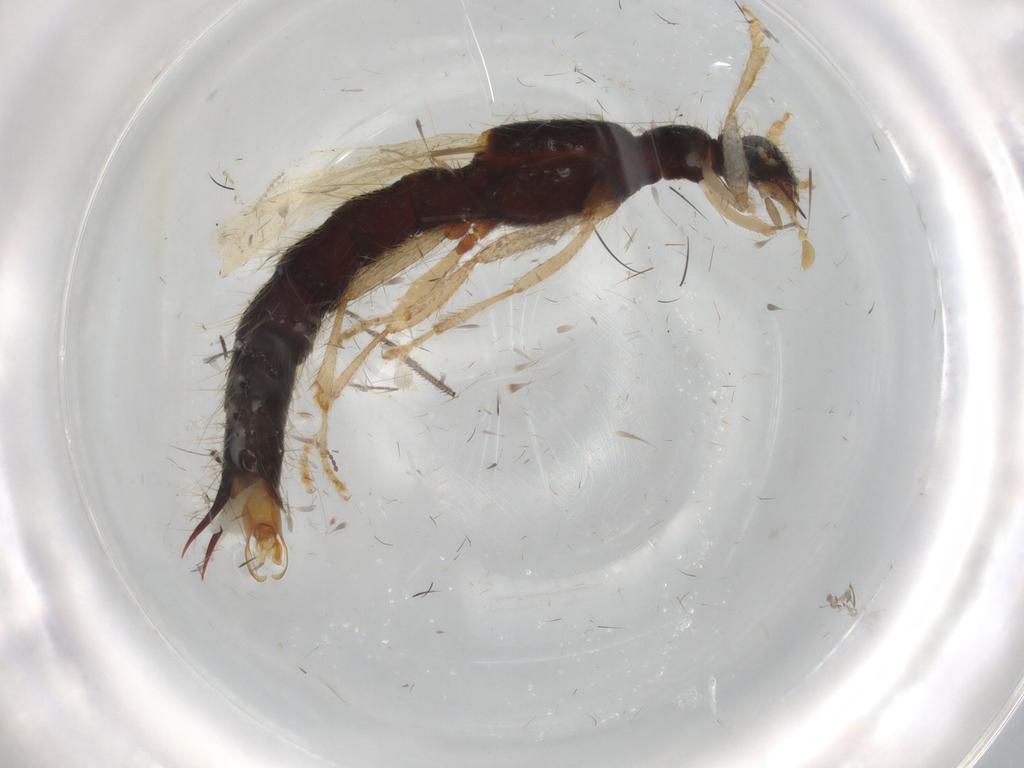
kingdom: Animalia
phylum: Arthropoda
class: Insecta
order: Coleoptera
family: Staphylinidae
